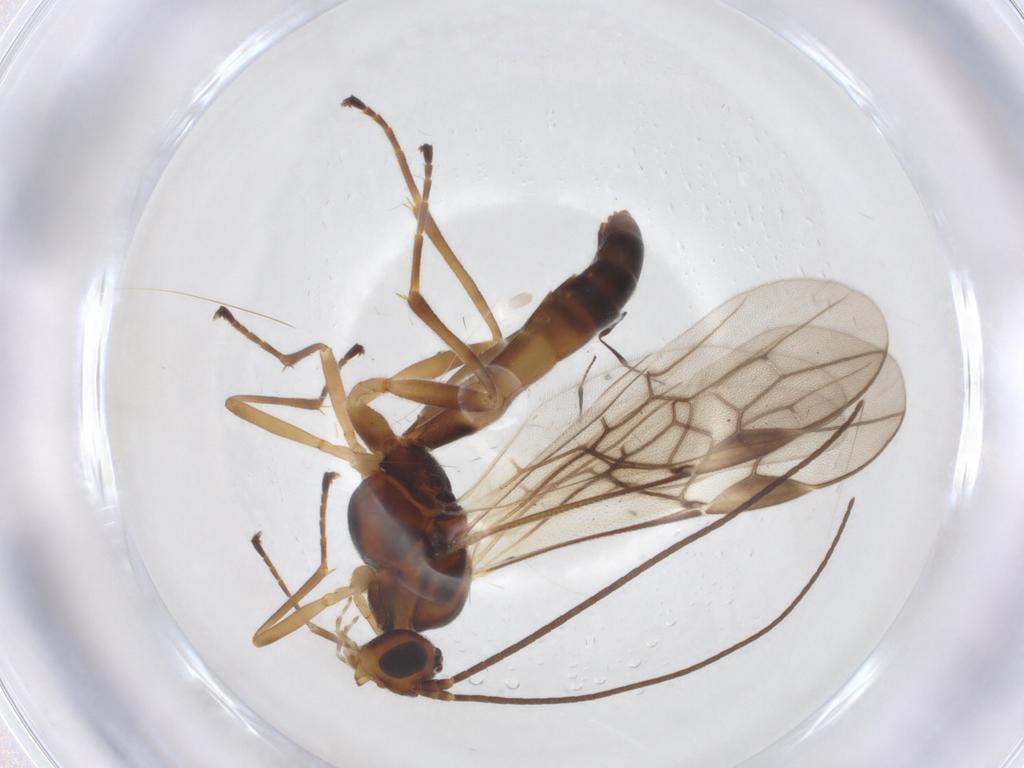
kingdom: Animalia
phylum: Arthropoda
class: Insecta
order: Hymenoptera
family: Braconidae
